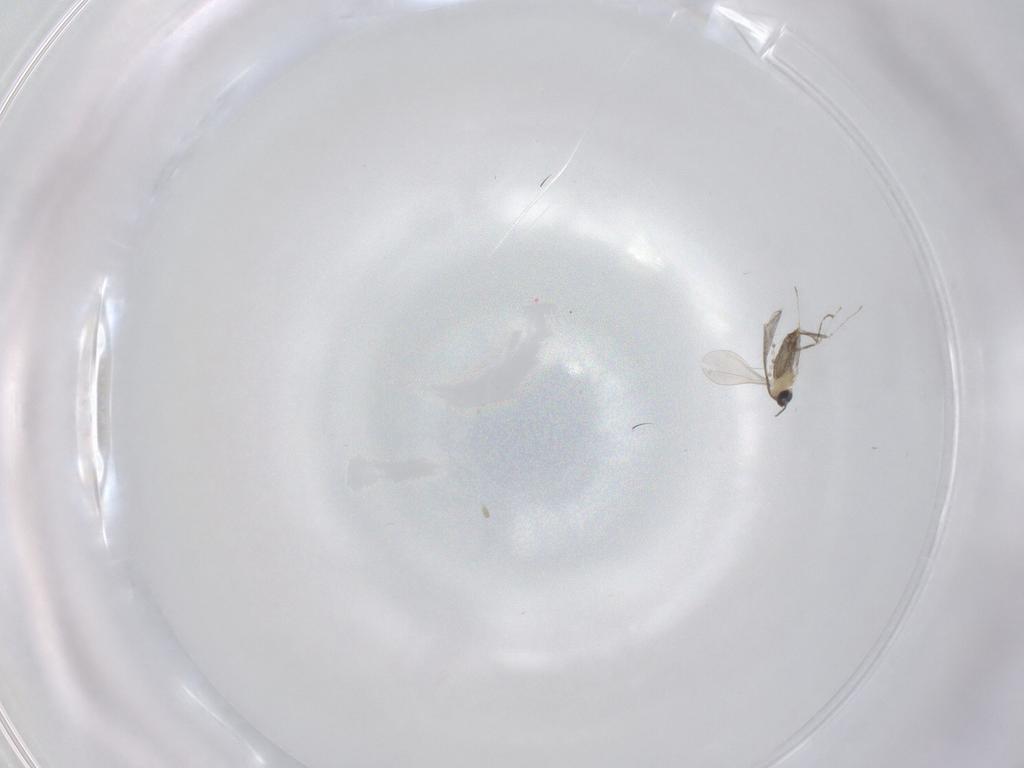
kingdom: Animalia
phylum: Arthropoda
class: Insecta
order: Diptera
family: Cecidomyiidae
